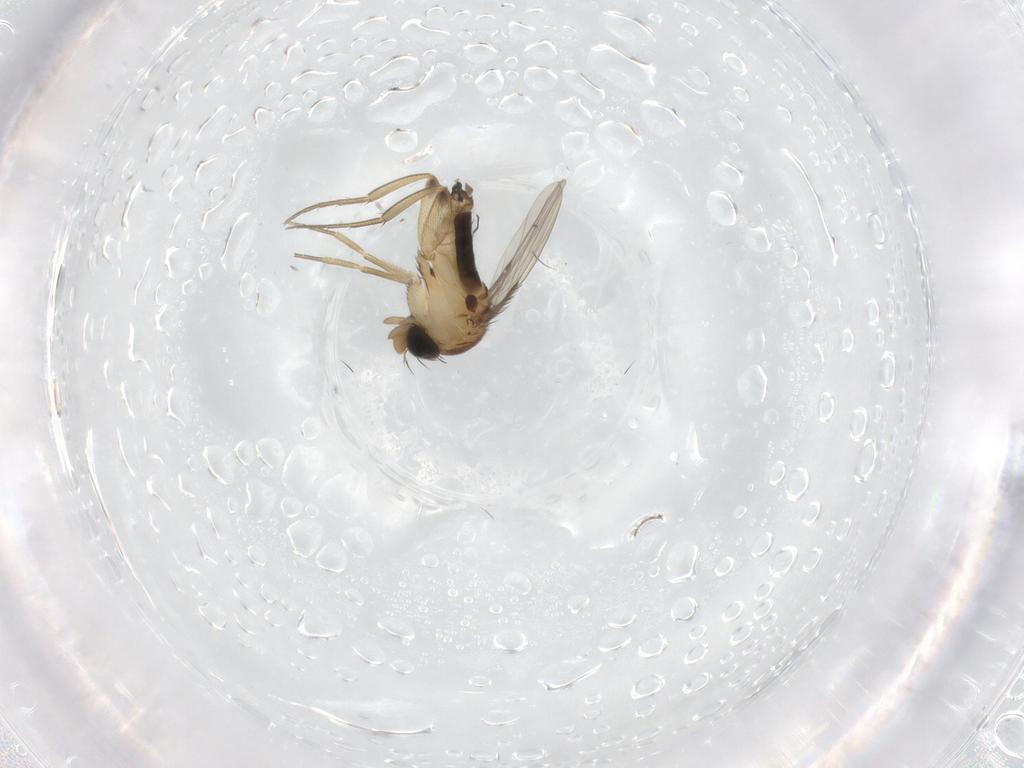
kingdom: Animalia
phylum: Arthropoda
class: Insecta
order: Diptera
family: Phoridae
